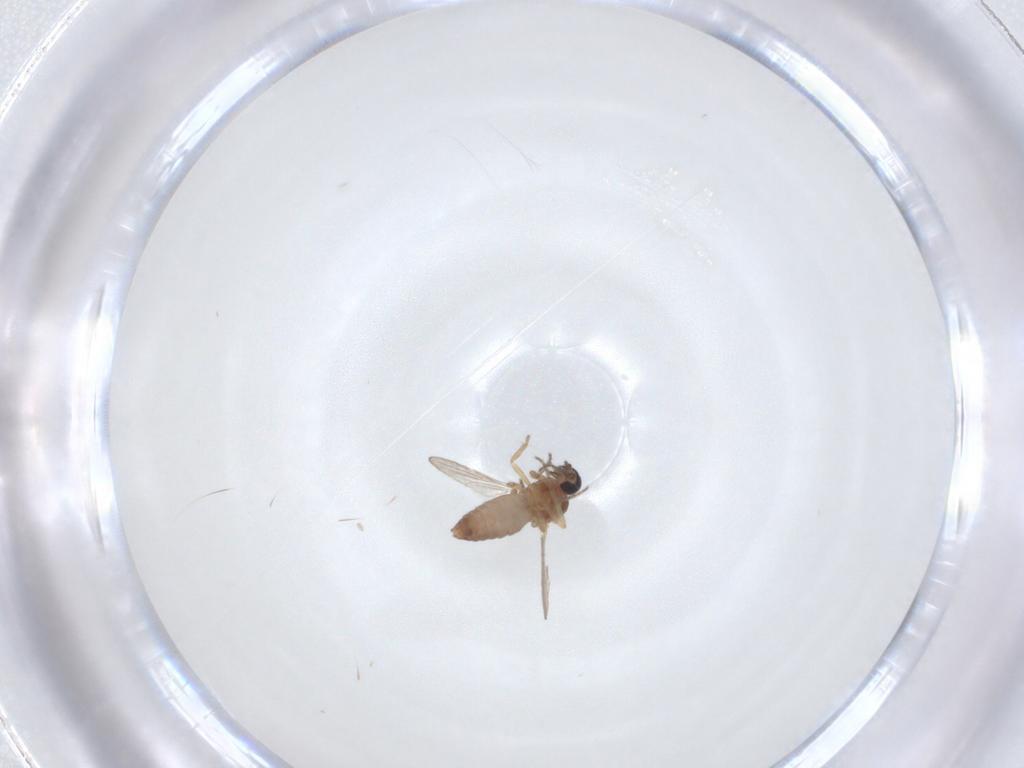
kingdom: Animalia
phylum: Arthropoda
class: Insecta
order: Diptera
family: Ceratopogonidae
